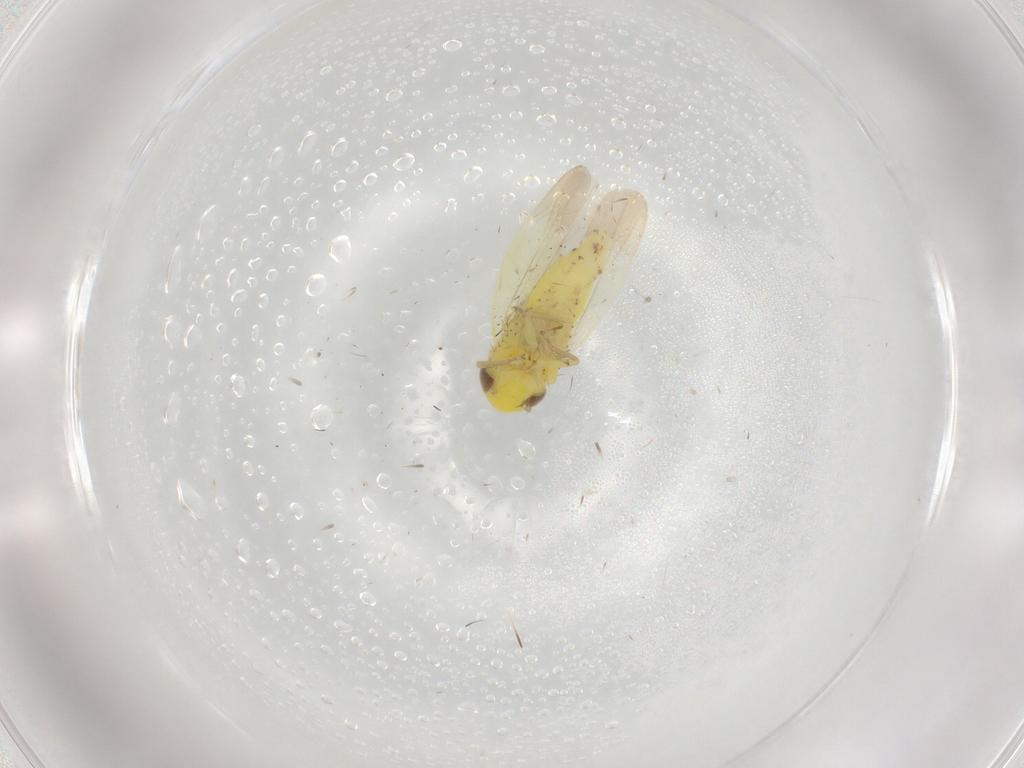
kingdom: Animalia
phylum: Arthropoda
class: Insecta
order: Hemiptera
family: Cicadellidae
